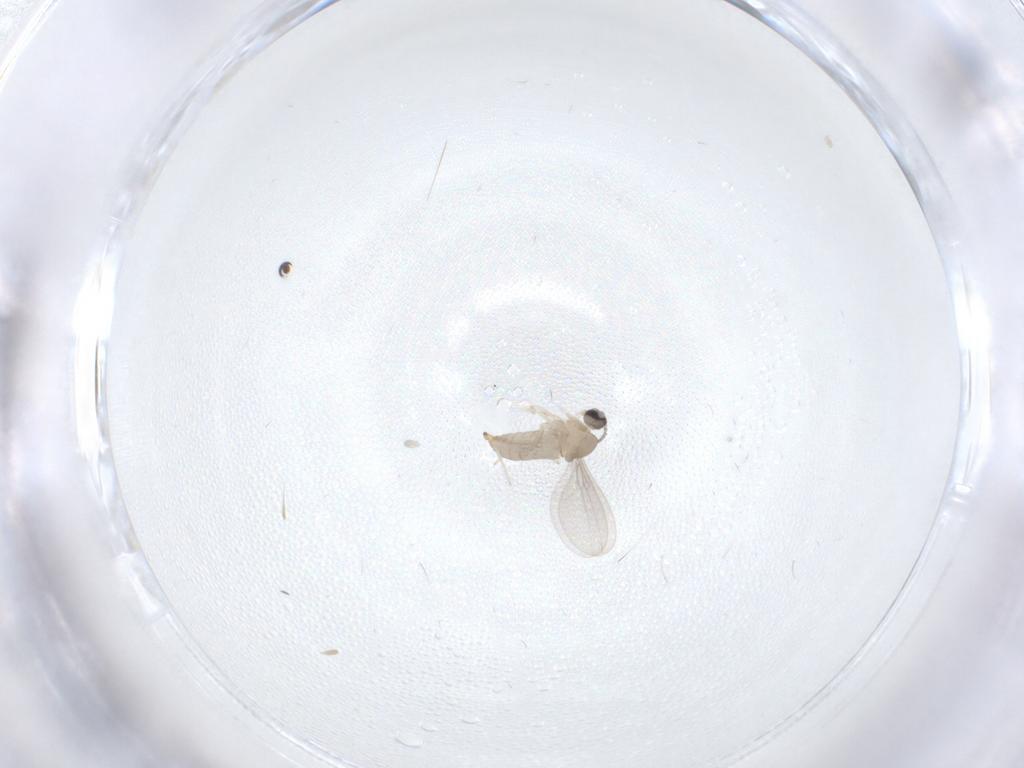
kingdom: Animalia
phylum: Arthropoda
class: Insecta
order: Diptera
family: Cecidomyiidae
